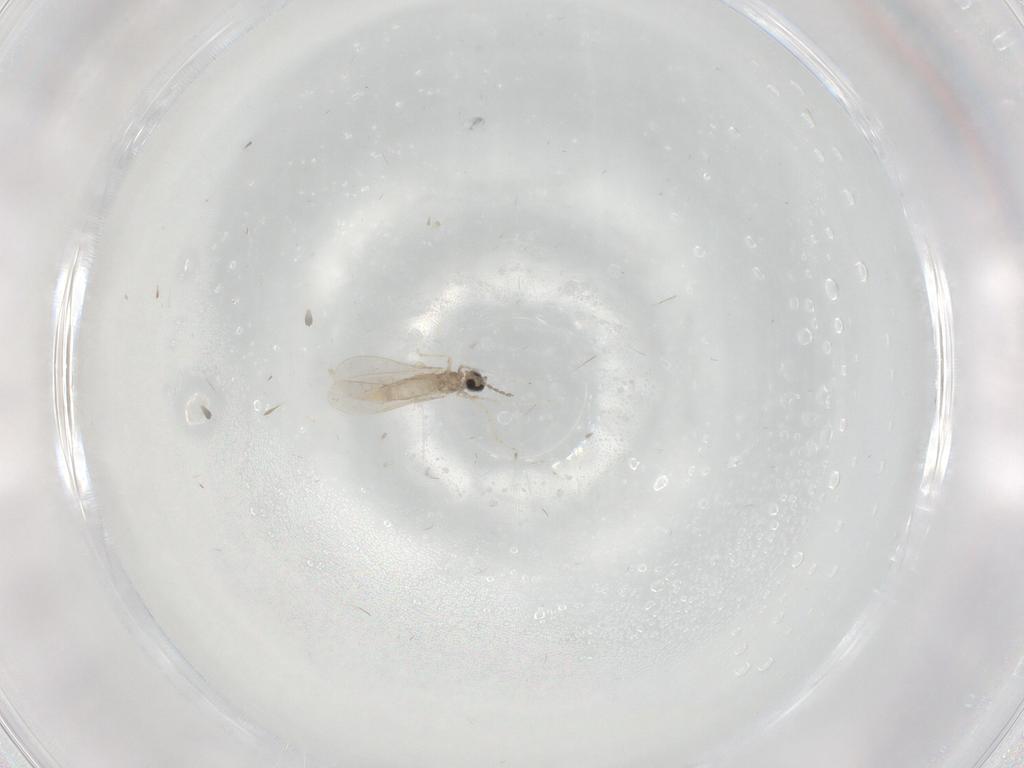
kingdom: Animalia
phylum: Arthropoda
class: Insecta
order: Diptera
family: Cecidomyiidae
